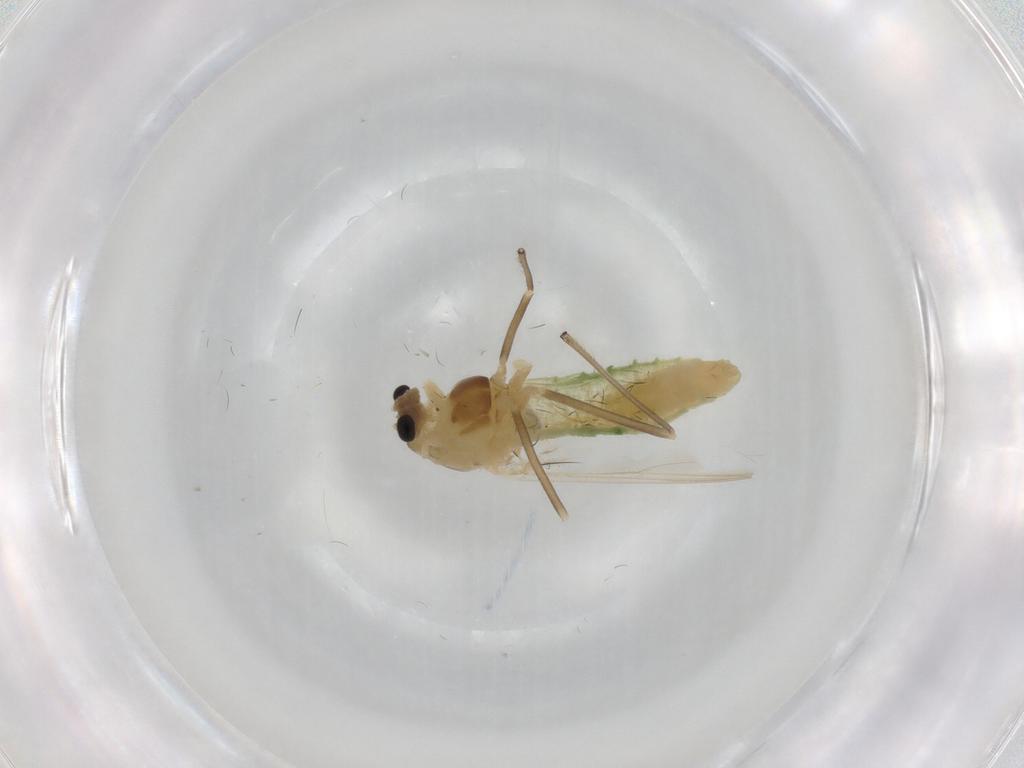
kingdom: Animalia
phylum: Arthropoda
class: Insecta
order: Diptera
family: Chironomidae
